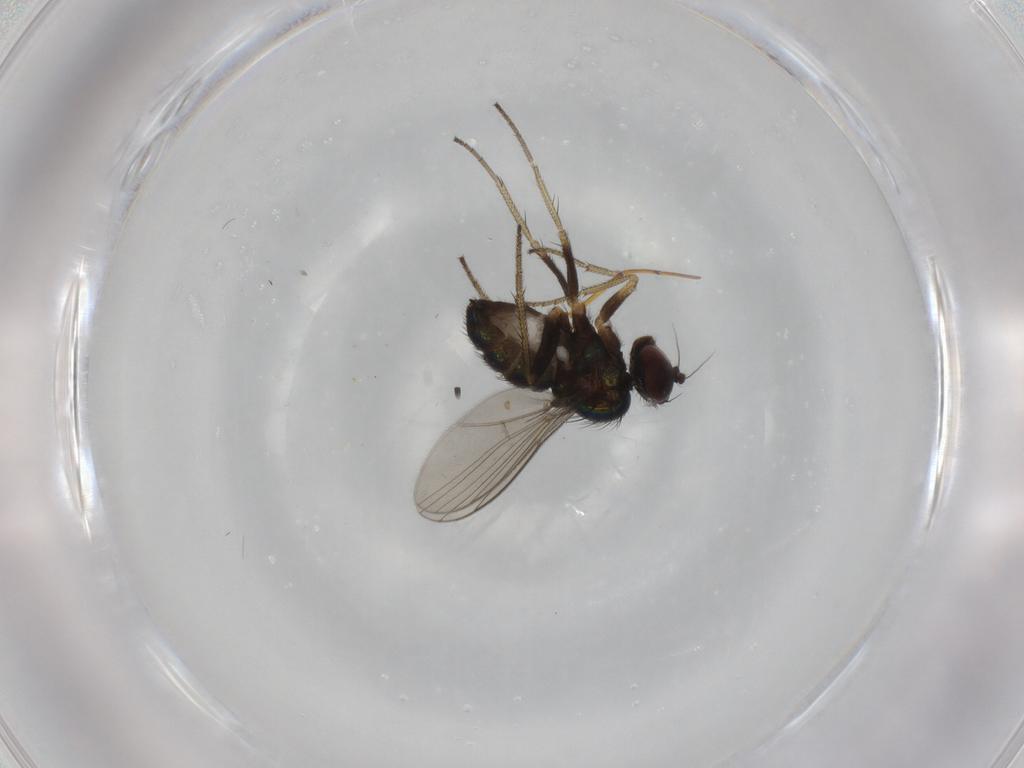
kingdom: Animalia
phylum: Arthropoda
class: Insecta
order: Diptera
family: Dolichopodidae
